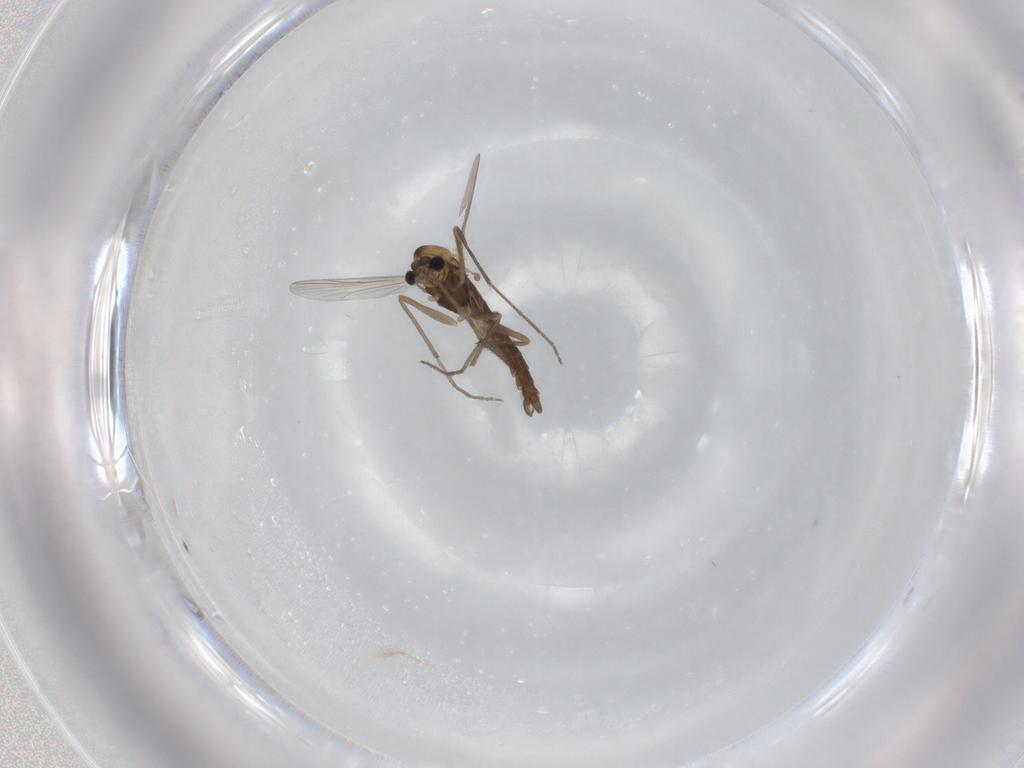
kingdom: Animalia
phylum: Arthropoda
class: Insecta
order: Diptera
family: Chironomidae
